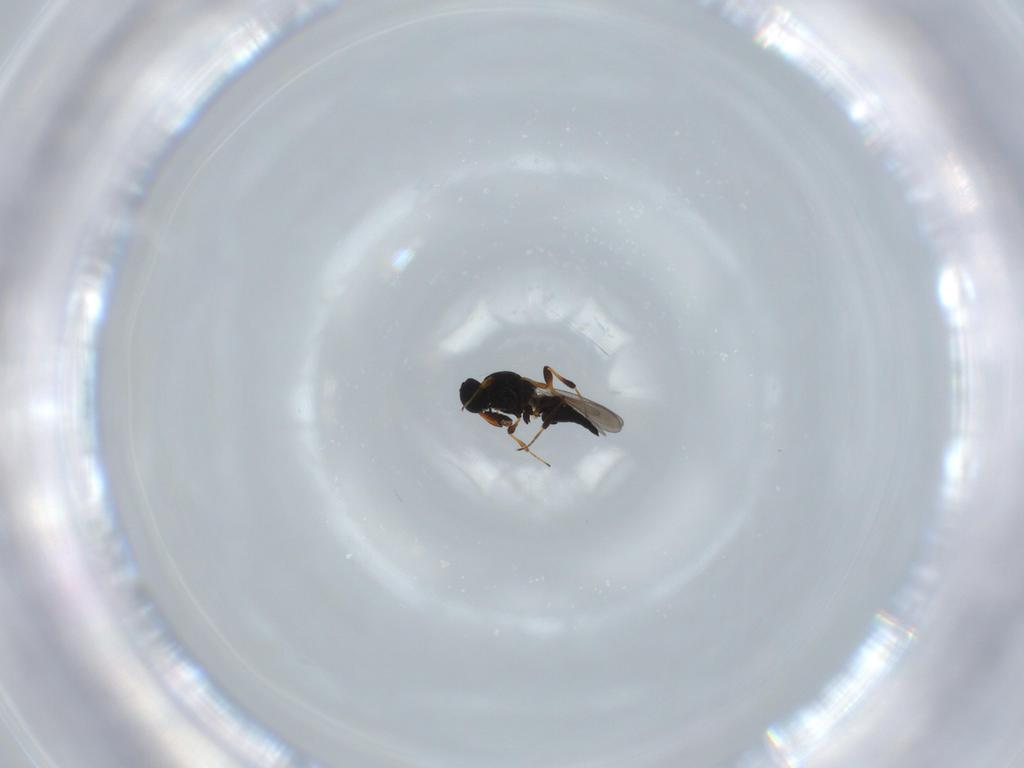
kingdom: Animalia
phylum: Arthropoda
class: Insecta
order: Hymenoptera
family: Platygastridae
